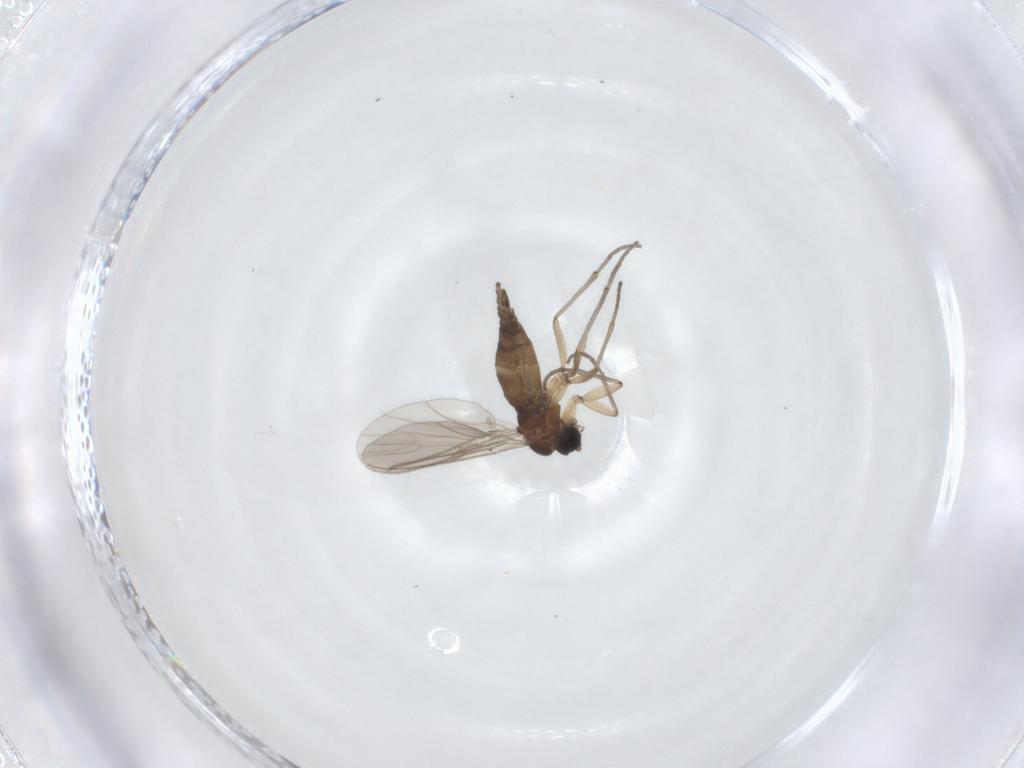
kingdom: Animalia
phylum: Arthropoda
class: Insecta
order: Diptera
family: Sciaridae
